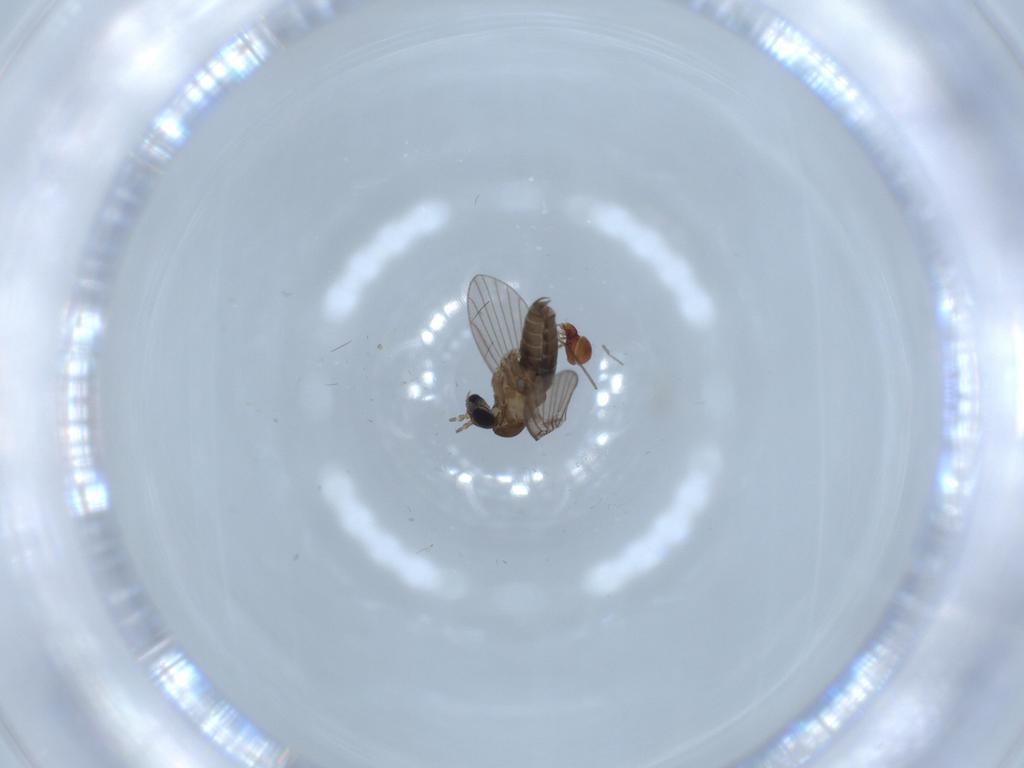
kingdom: Animalia
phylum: Arthropoda
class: Arachnida
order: Sarcoptiformes
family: Oppiidae
